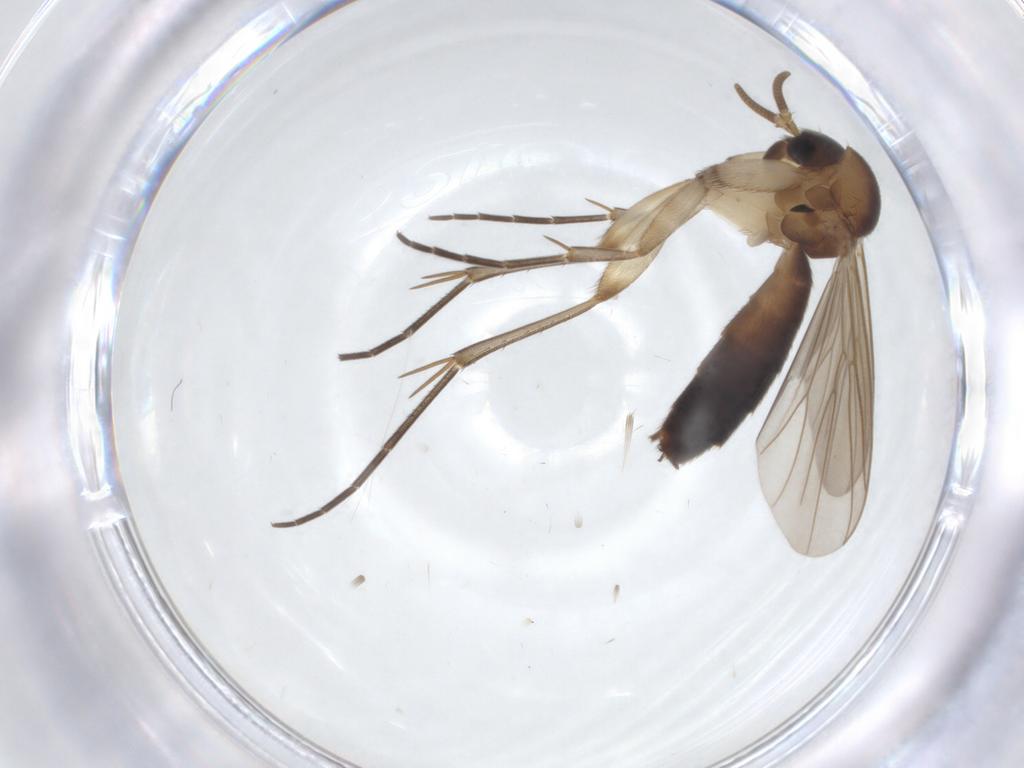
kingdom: Animalia
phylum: Arthropoda
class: Insecta
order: Diptera
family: Mycetophilidae
